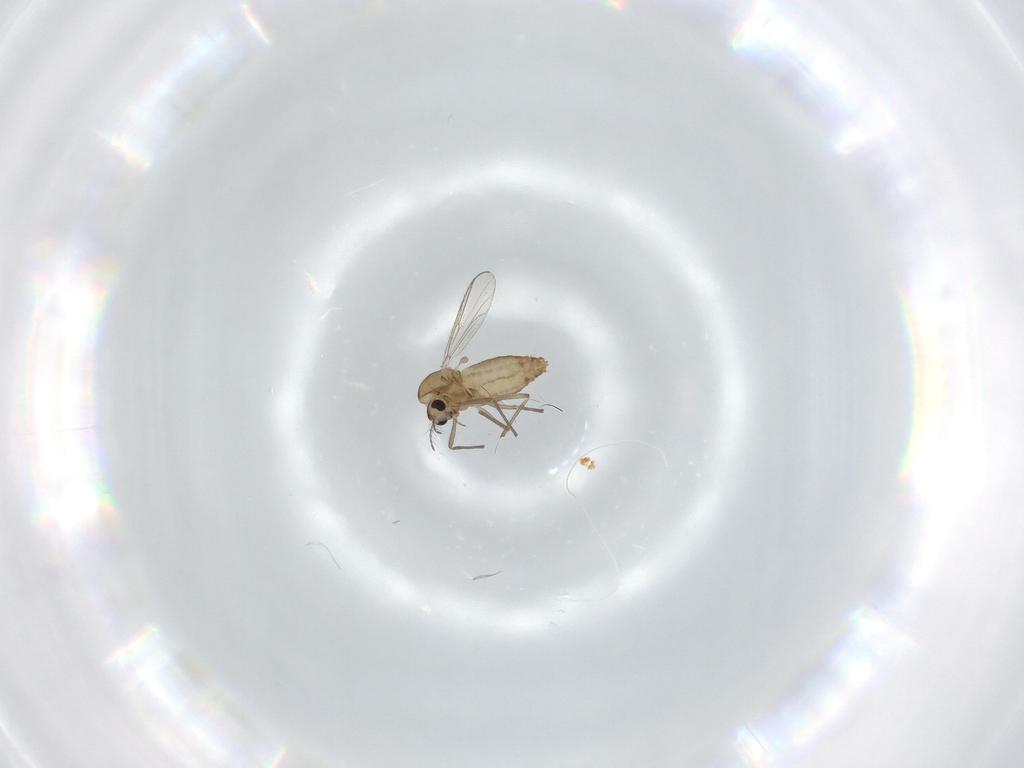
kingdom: Animalia
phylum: Arthropoda
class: Insecta
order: Diptera
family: Chironomidae
